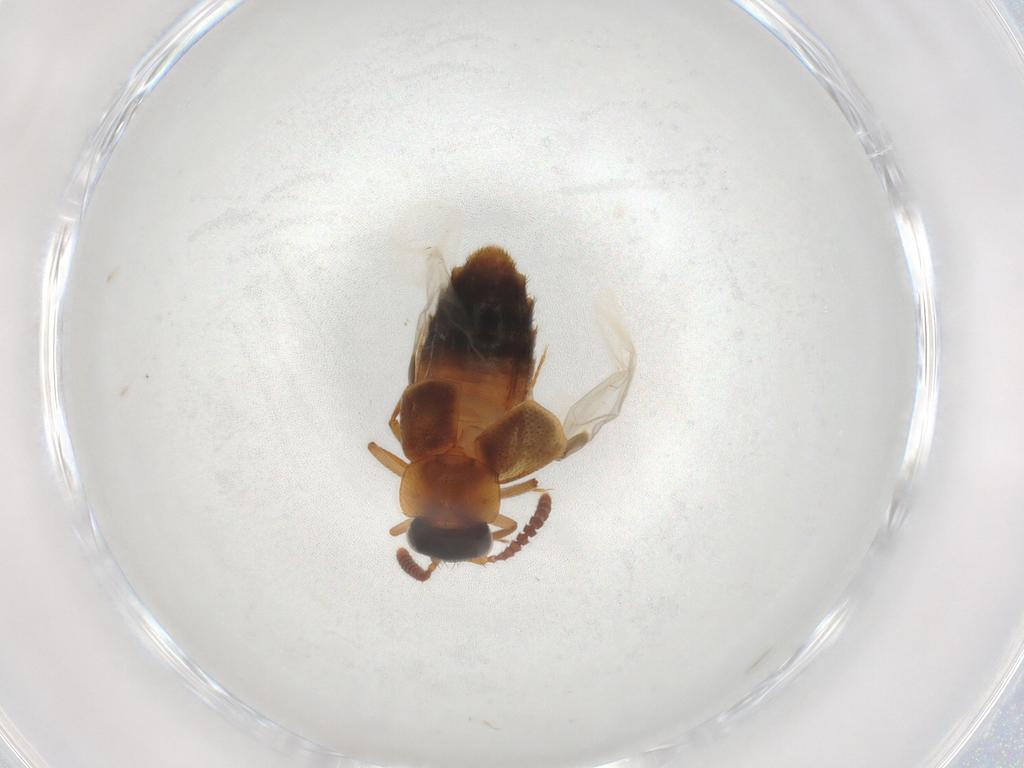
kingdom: Animalia
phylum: Arthropoda
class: Insecta
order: Coleoptera
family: Staphylinidae
